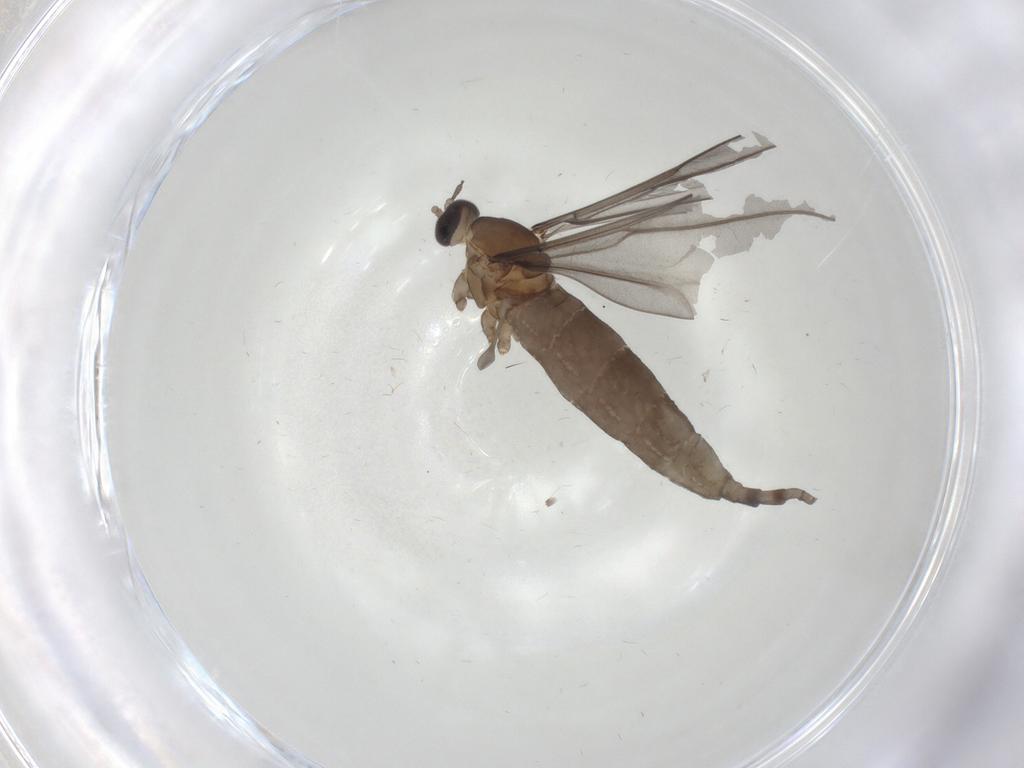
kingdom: Animalia
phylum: Arthropoda
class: Insecta
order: Diptera
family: Cecidomyiidae
